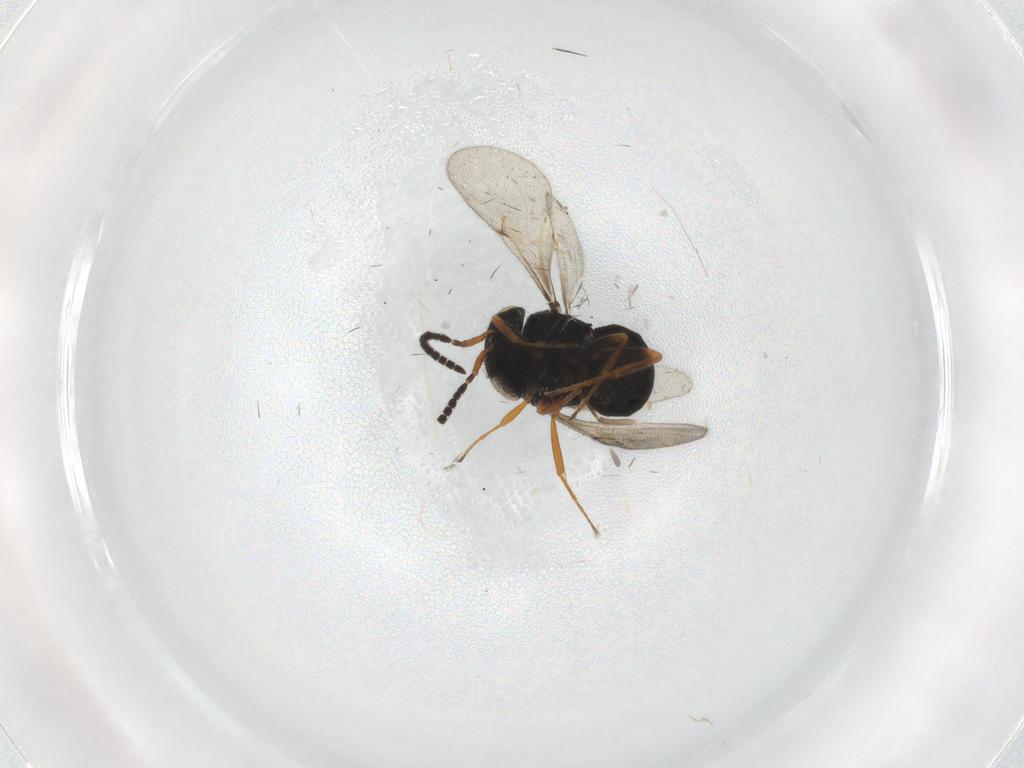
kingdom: Animalia
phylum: Arthropoda
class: Insecta
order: Hymenoptera
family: Scelionidae
